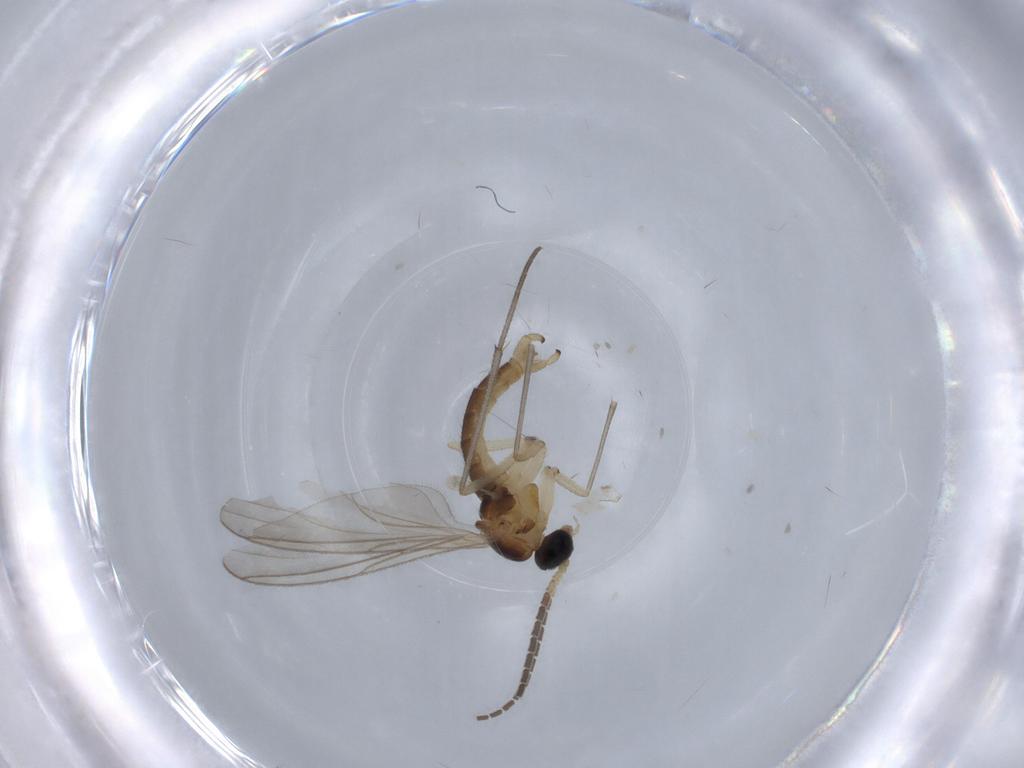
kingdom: Animalia
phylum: Arthropoda
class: Insecta
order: Diptera
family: Sciaridae
